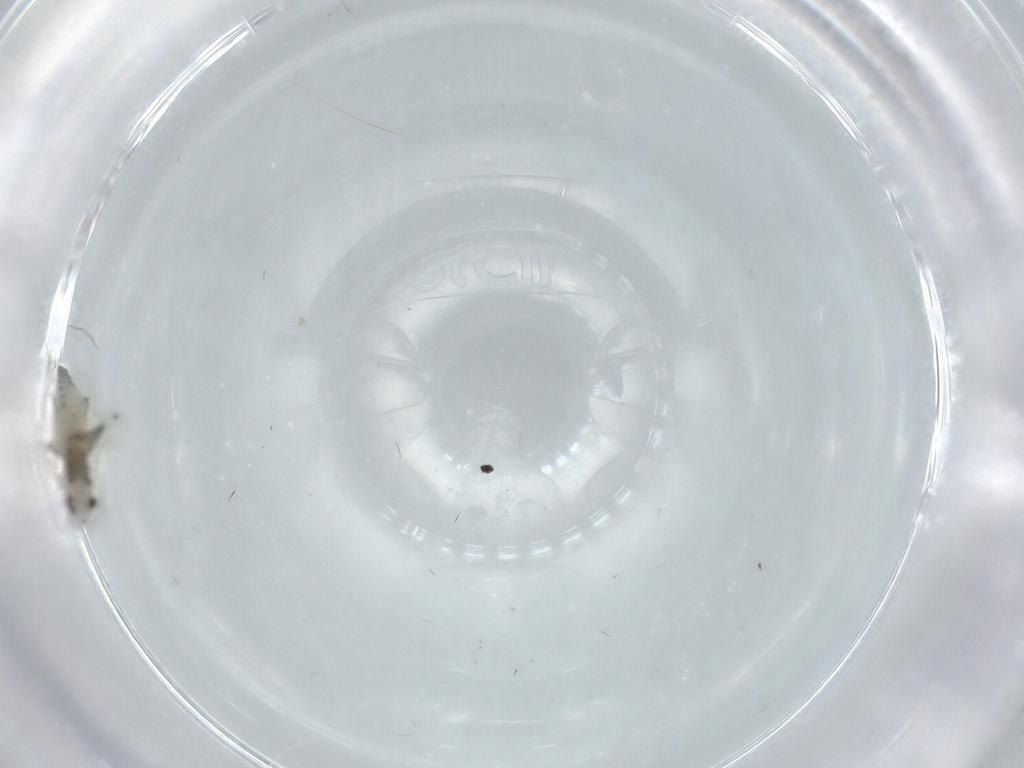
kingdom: Animalia
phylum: Arthropoda
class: Insecta
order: Diptera
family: Chironomidae
